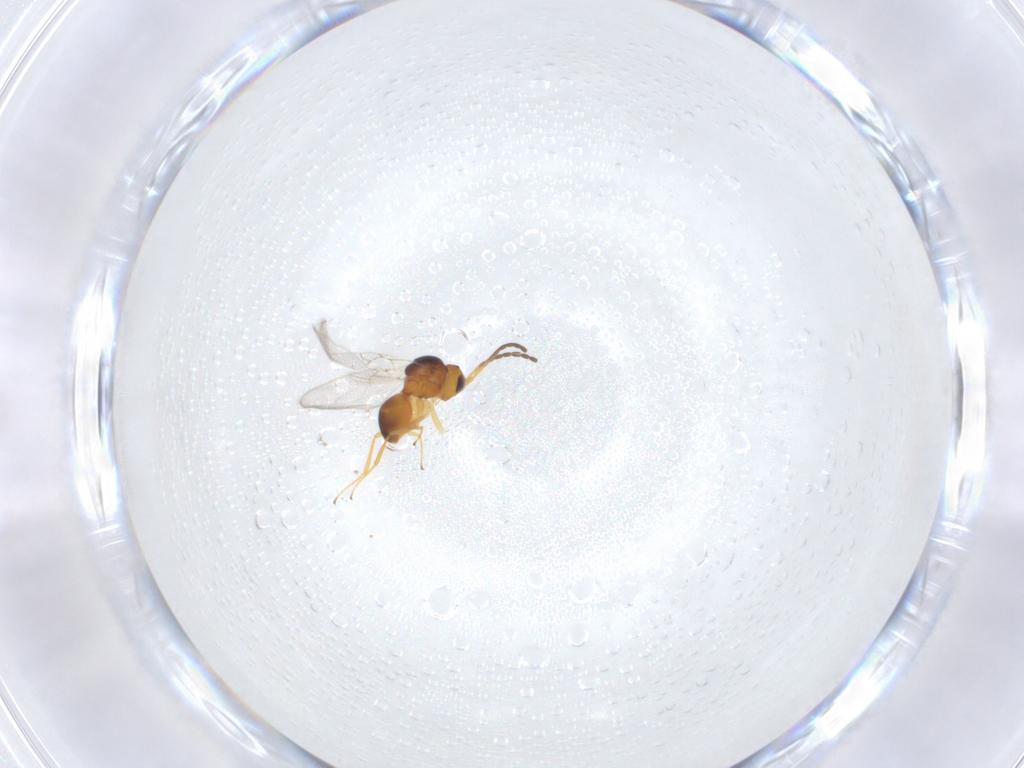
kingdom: Animalia
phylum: Arthropoda
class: Insecta
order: Hymenoptera
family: Figitidae
